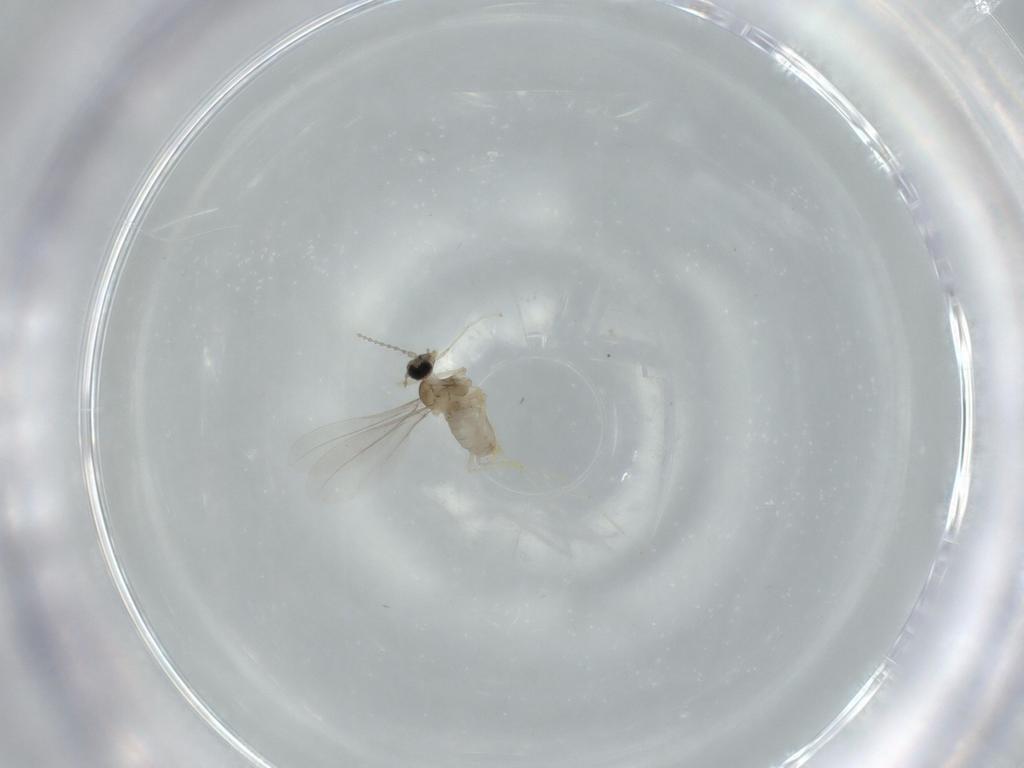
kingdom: Animalia
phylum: Arthropoda
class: Insecta
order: Diptera
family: Cecidomyiidae
